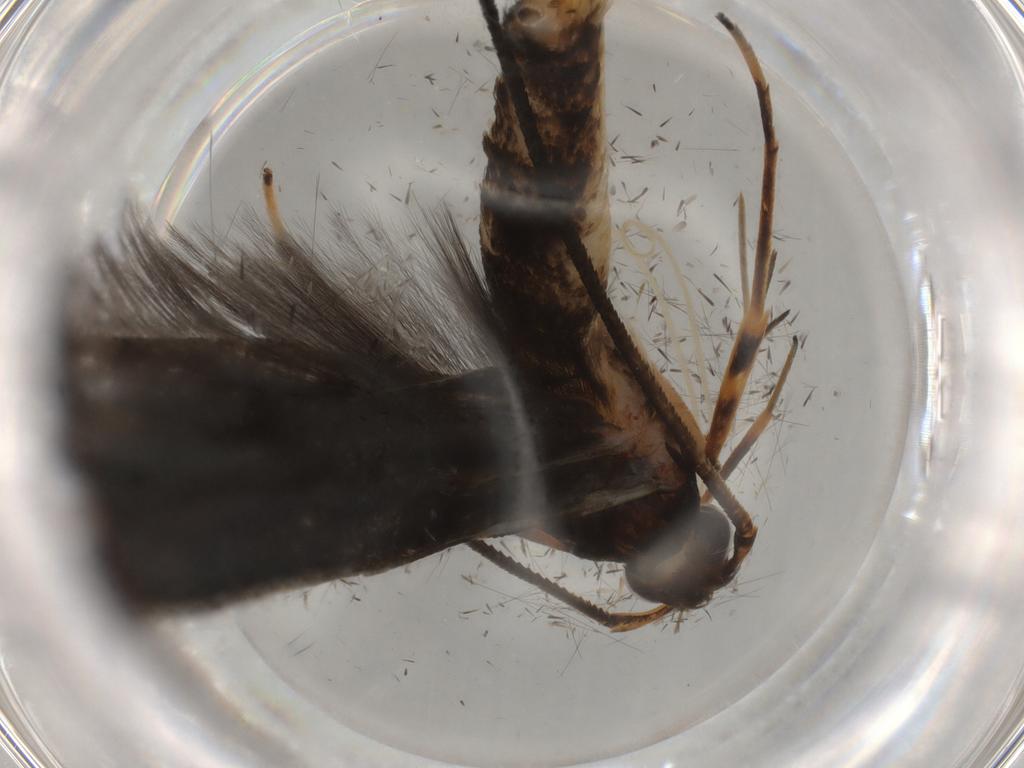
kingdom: Animalia
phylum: Arthropoda
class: Insecta
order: Lepidoptera
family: Elachistidae
